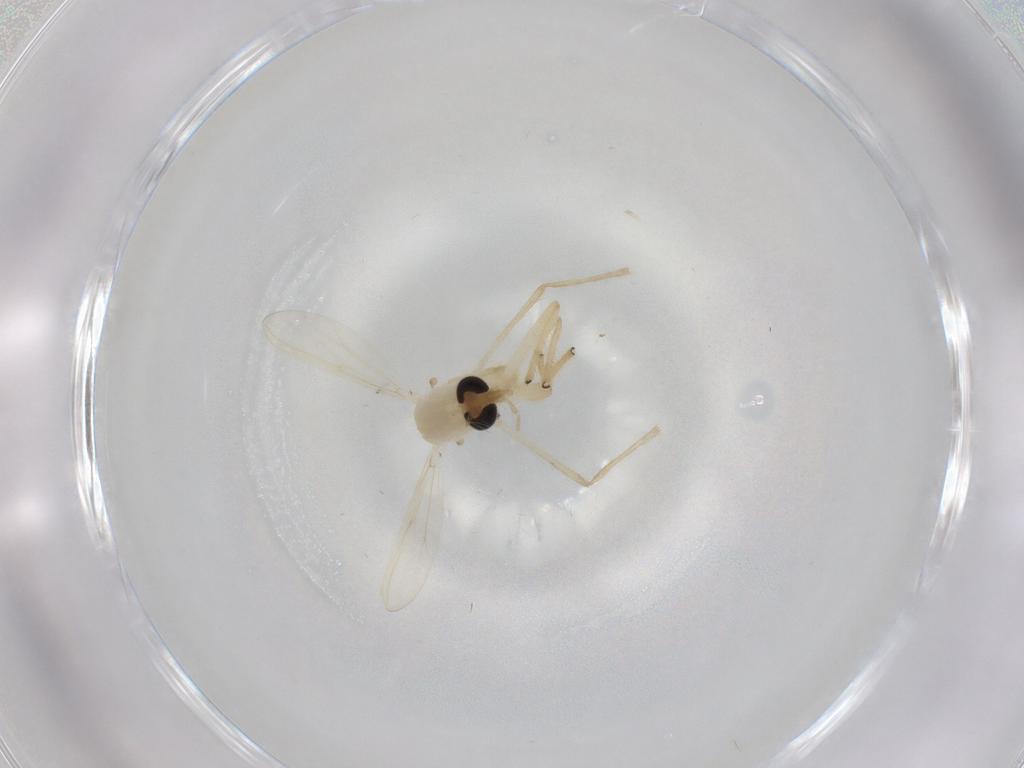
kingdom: Animalia
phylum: Arthropoda
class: Insecta
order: Diptera
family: Chironomidae
